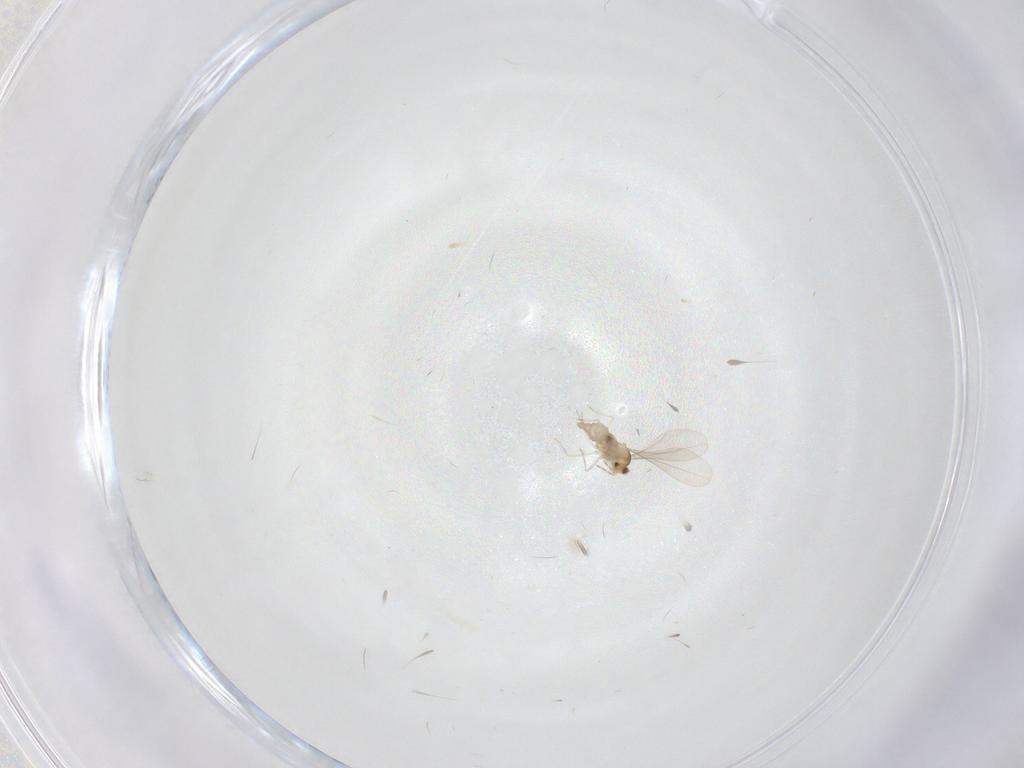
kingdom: Animalia
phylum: Arthropoda
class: Insecta
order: Diptera
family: Cecidomyiidae
